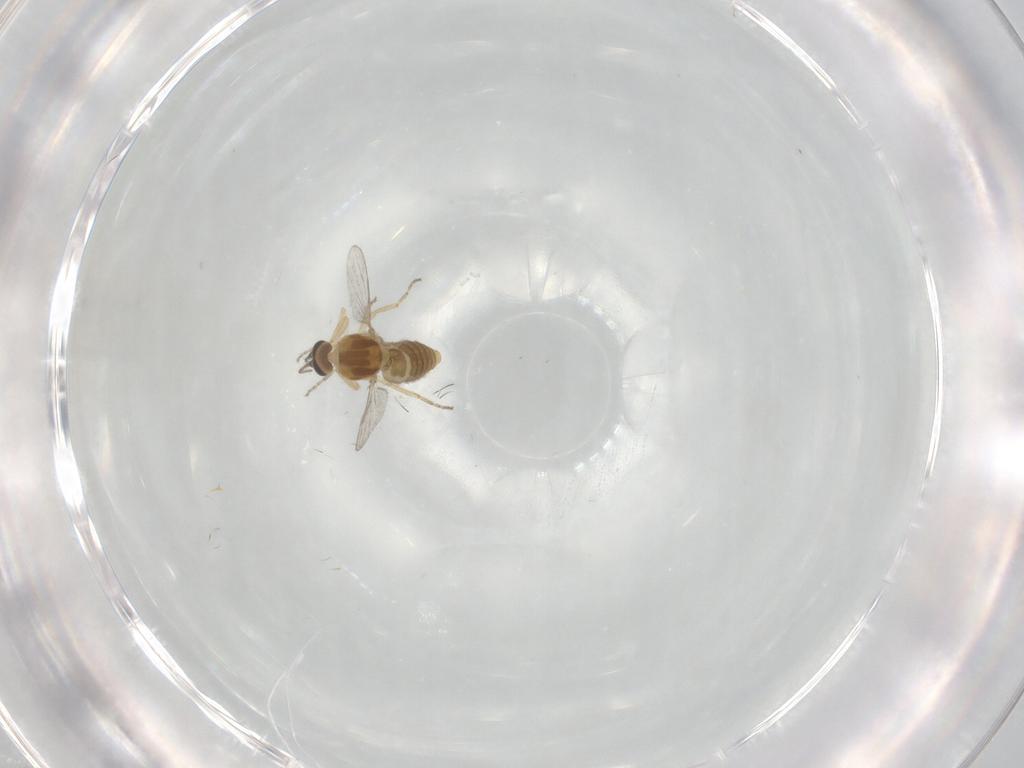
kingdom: Animalia
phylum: Arthropoda
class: Insecta
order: Diptera
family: Ceratopogonidae
